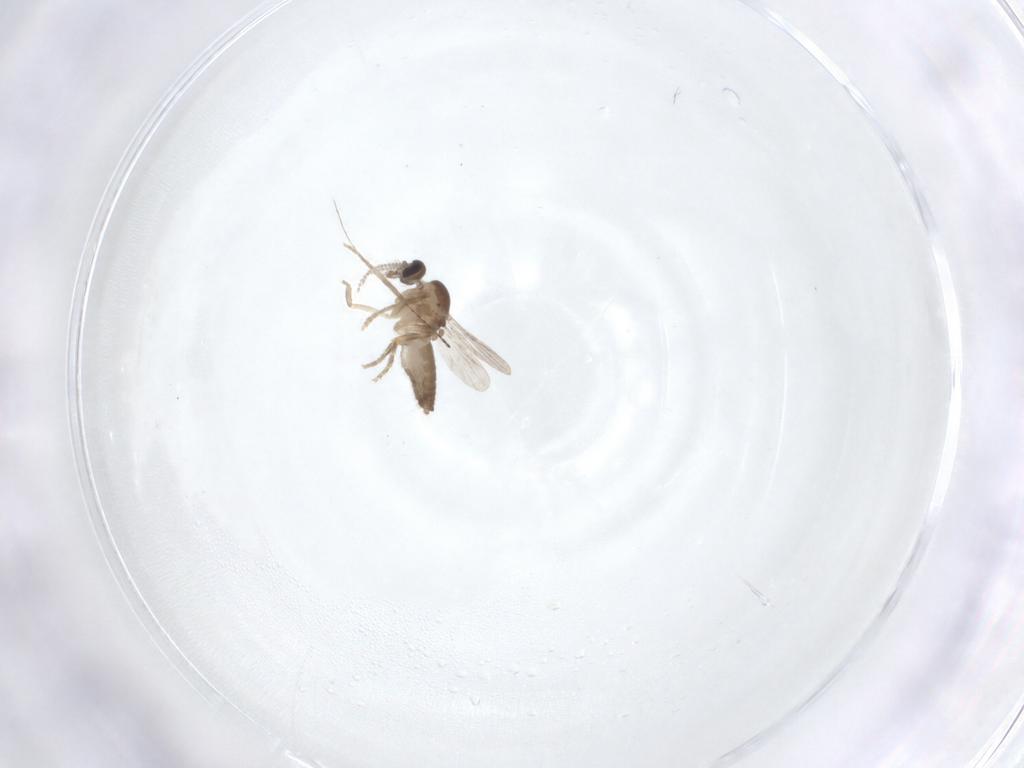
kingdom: Animalia
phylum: Arthropoda
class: Insecta
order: Diptera
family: Ceratopogonidae
